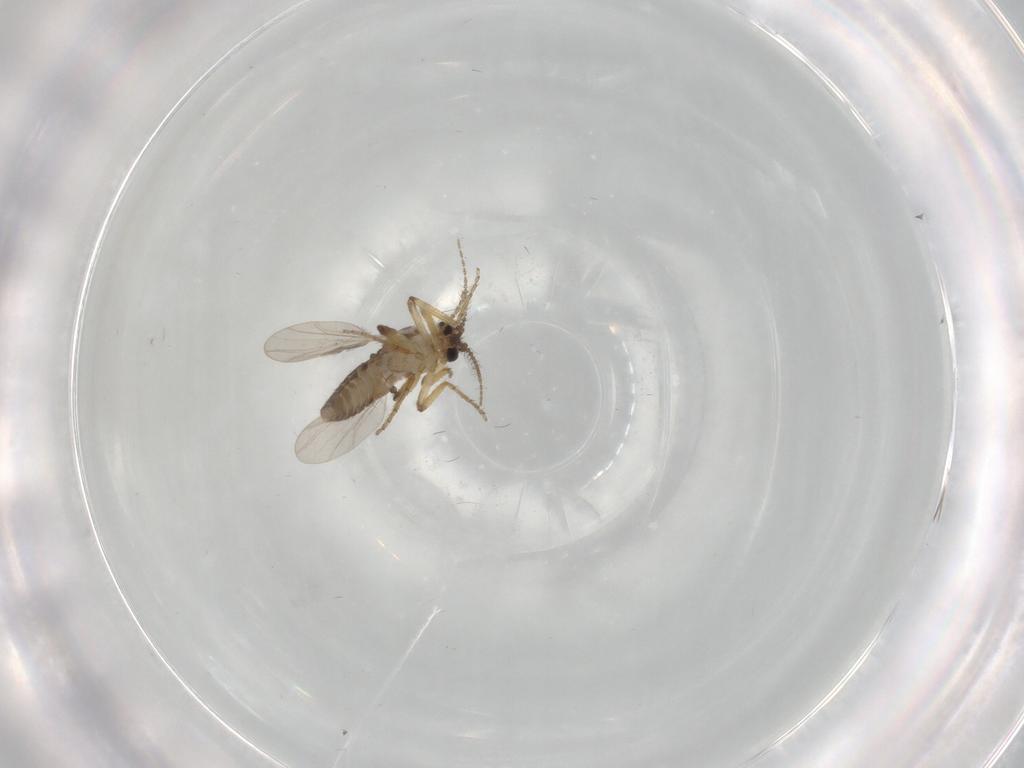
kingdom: Animalia
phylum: Arthropoda
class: Insecta
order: Diptera
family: Ceratopogonidae
